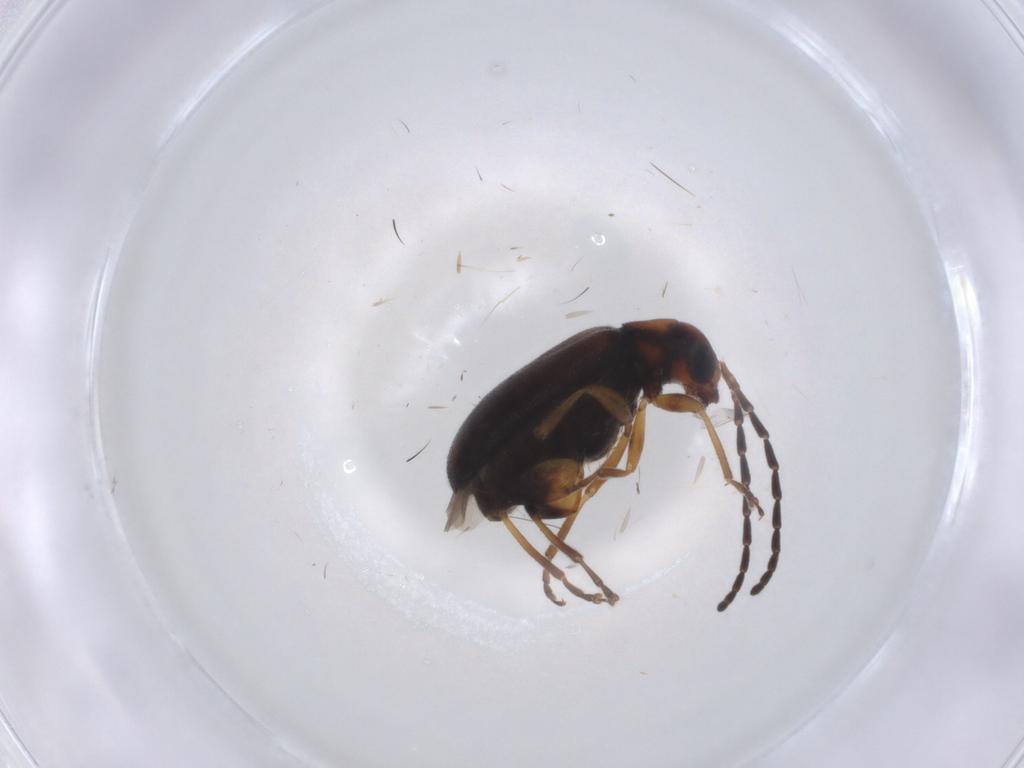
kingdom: Animalia
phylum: Arthropoda
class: Insecta
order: Coleoptera
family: Chrysomelidae
